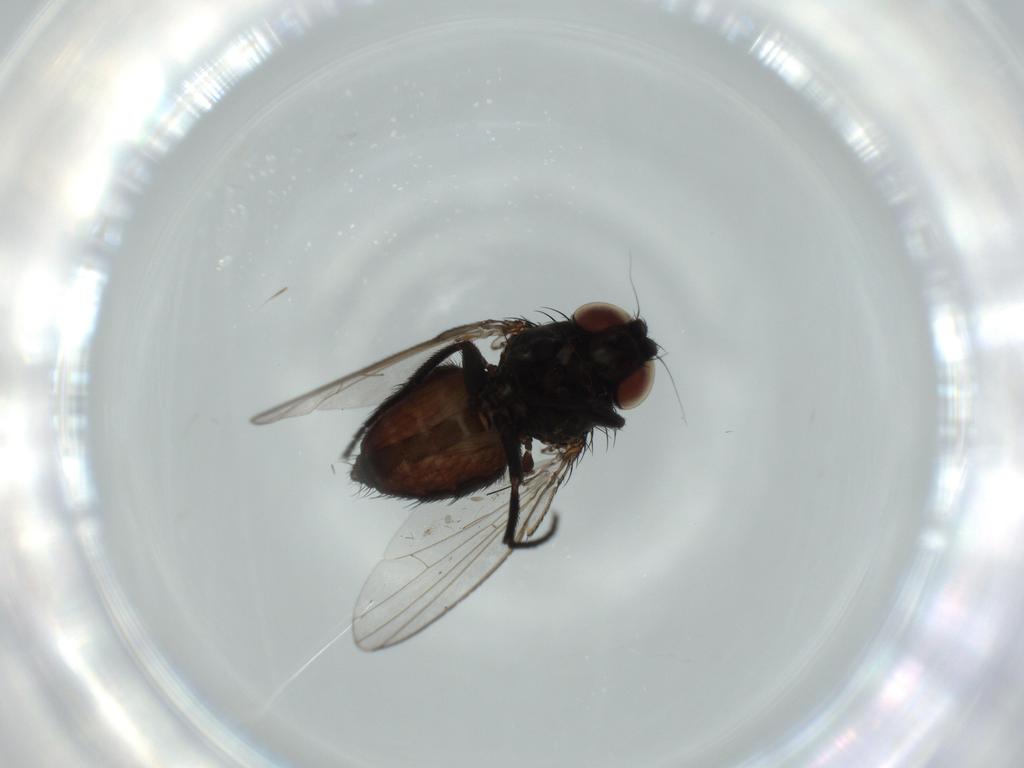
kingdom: Animalia
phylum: Arthropoda
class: Insecta
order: Diptera
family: Milichiidae
